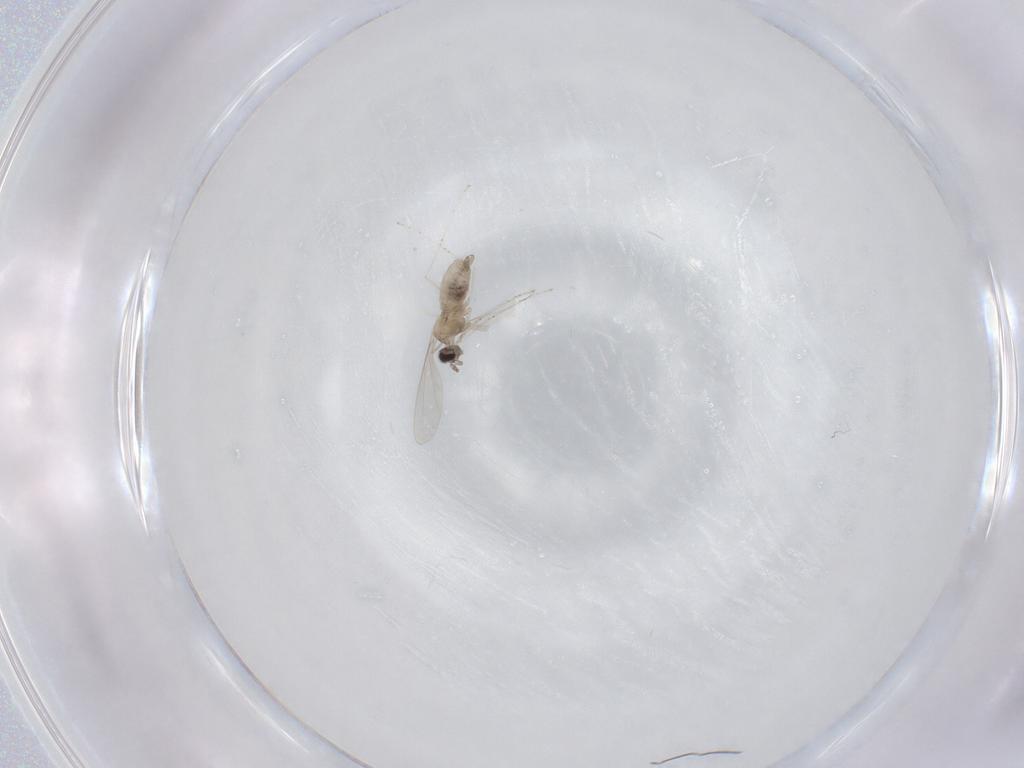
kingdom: Animalia
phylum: Arthropoda
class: Insecta
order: Diptera
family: Cecidomyiidae
